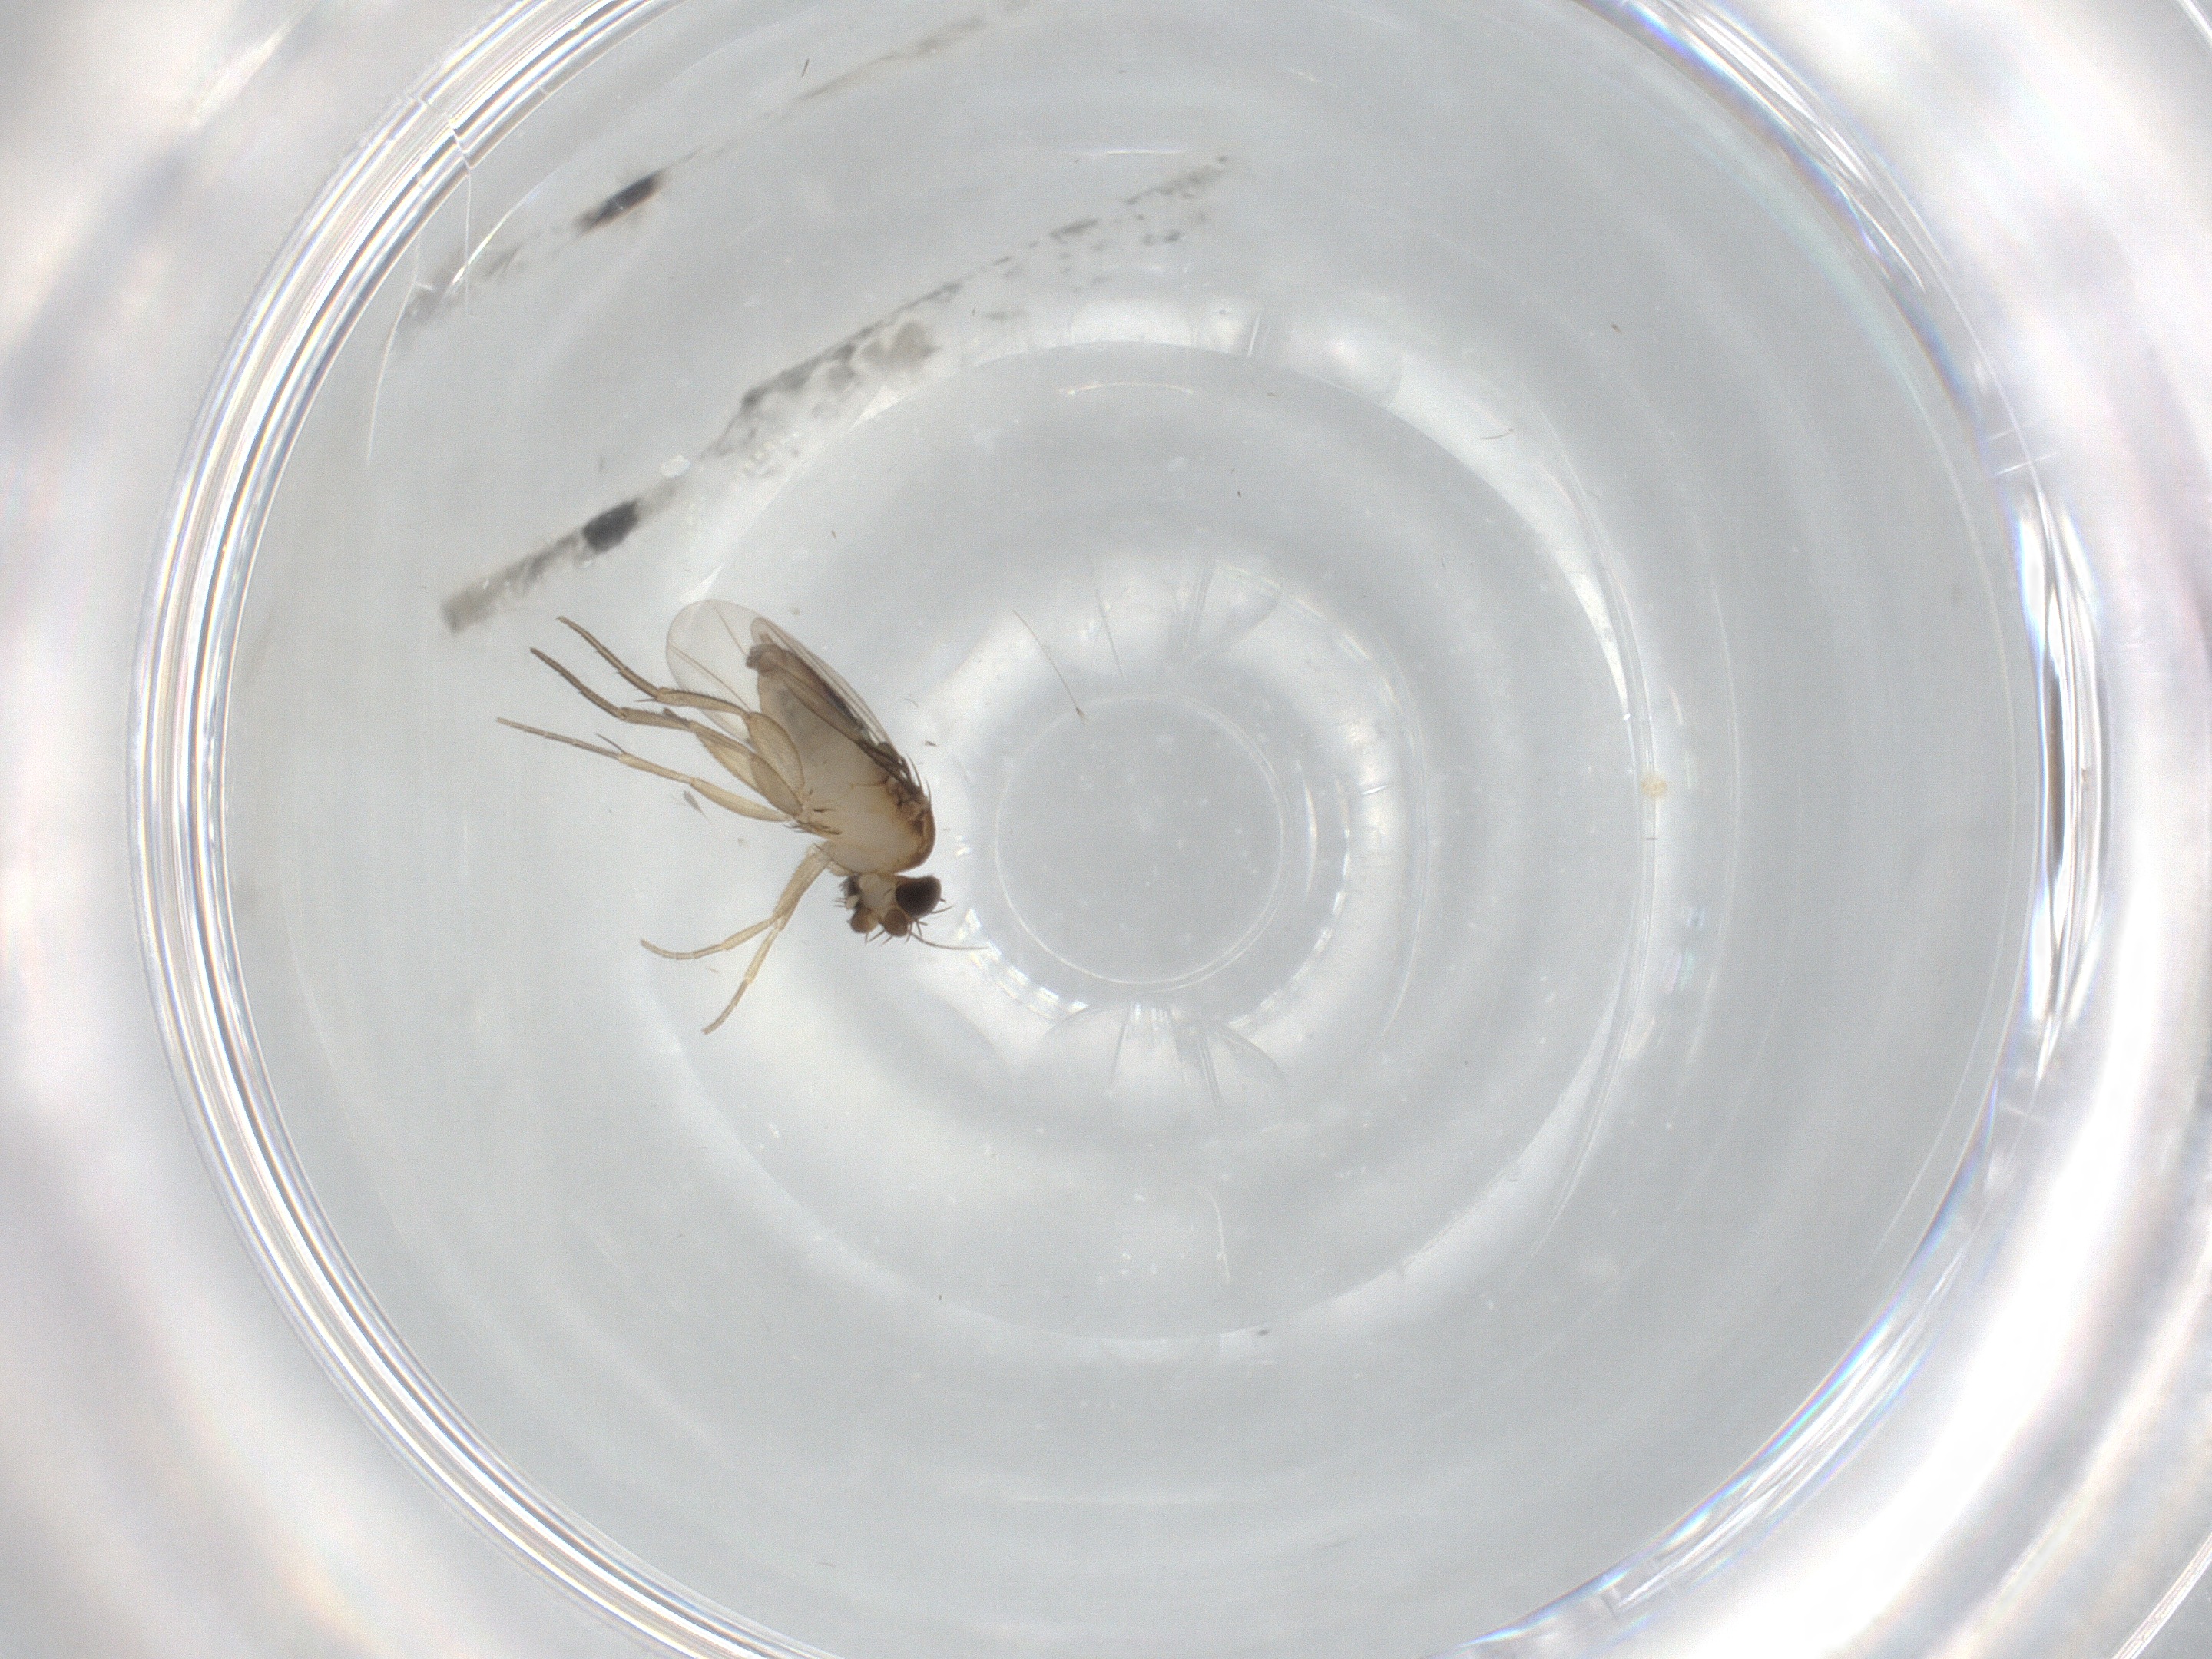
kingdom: Animalia
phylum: Arthropoda
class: Insecta
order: Diptera
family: Phoridae
